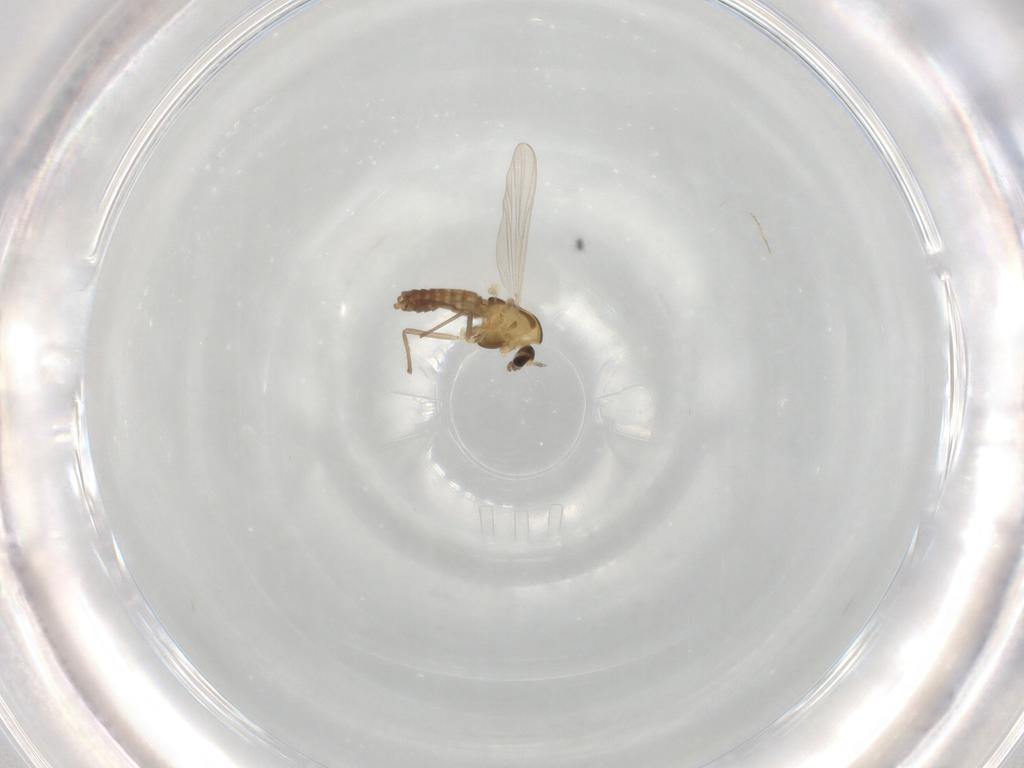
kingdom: Animalia
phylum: Arthropoda
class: Insecta
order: Diptera
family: Chironomidae
